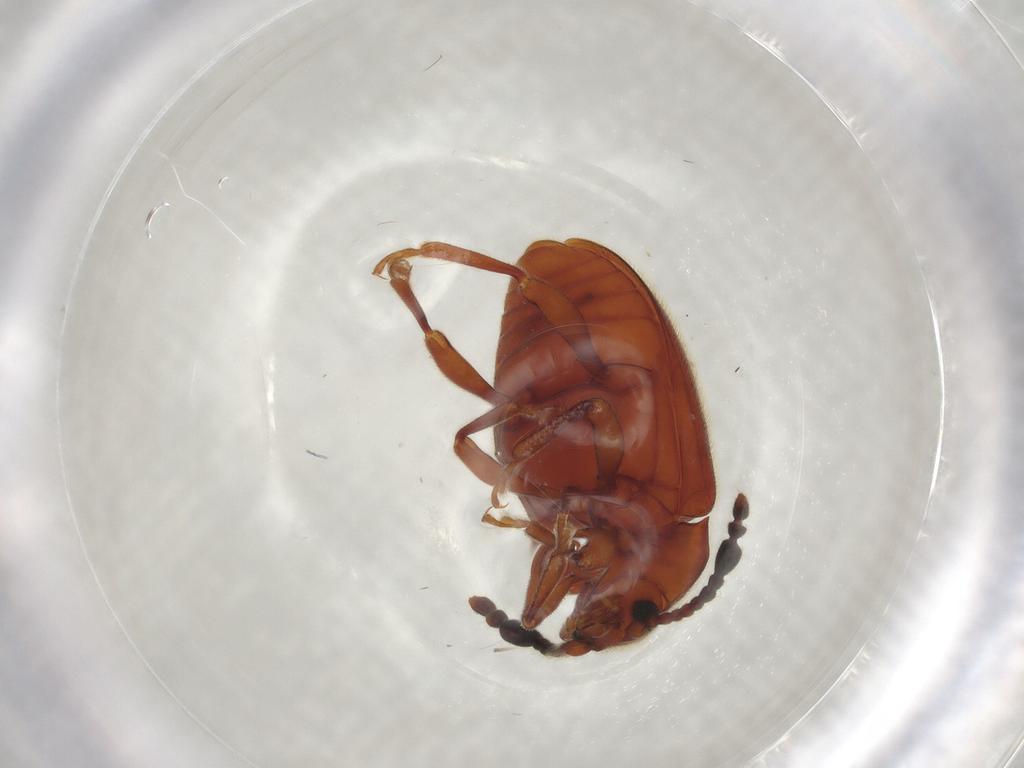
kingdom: Animalia
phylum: Arthropoda
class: Insecta
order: Coleoptera
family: Endomychidae
